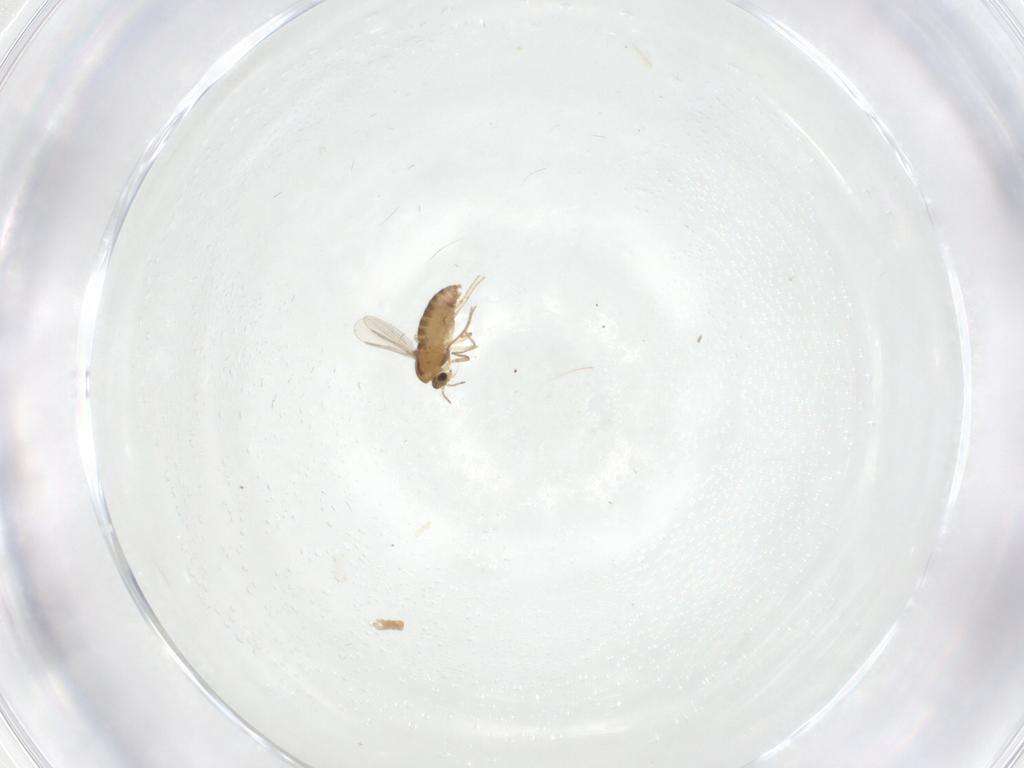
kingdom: Animalia
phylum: Arthropoda
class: Insecta
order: Diptera
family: Chironomidae
